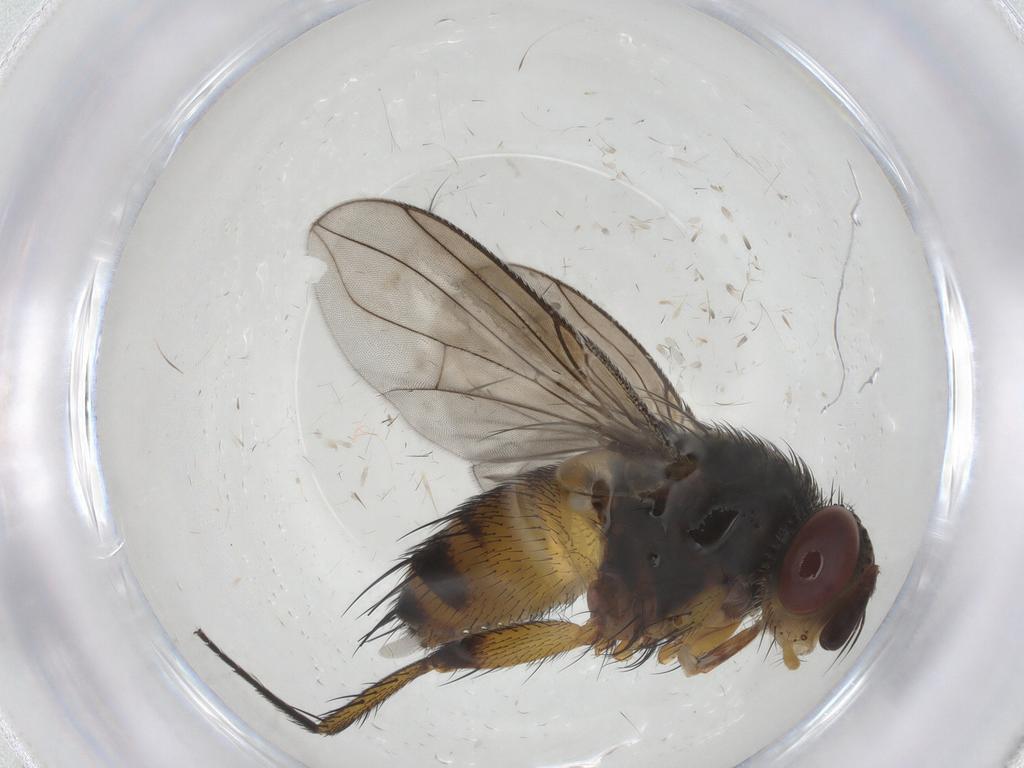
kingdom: Animalia
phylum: Arthropoda
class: Insecta
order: Diptera
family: Tachinidae
